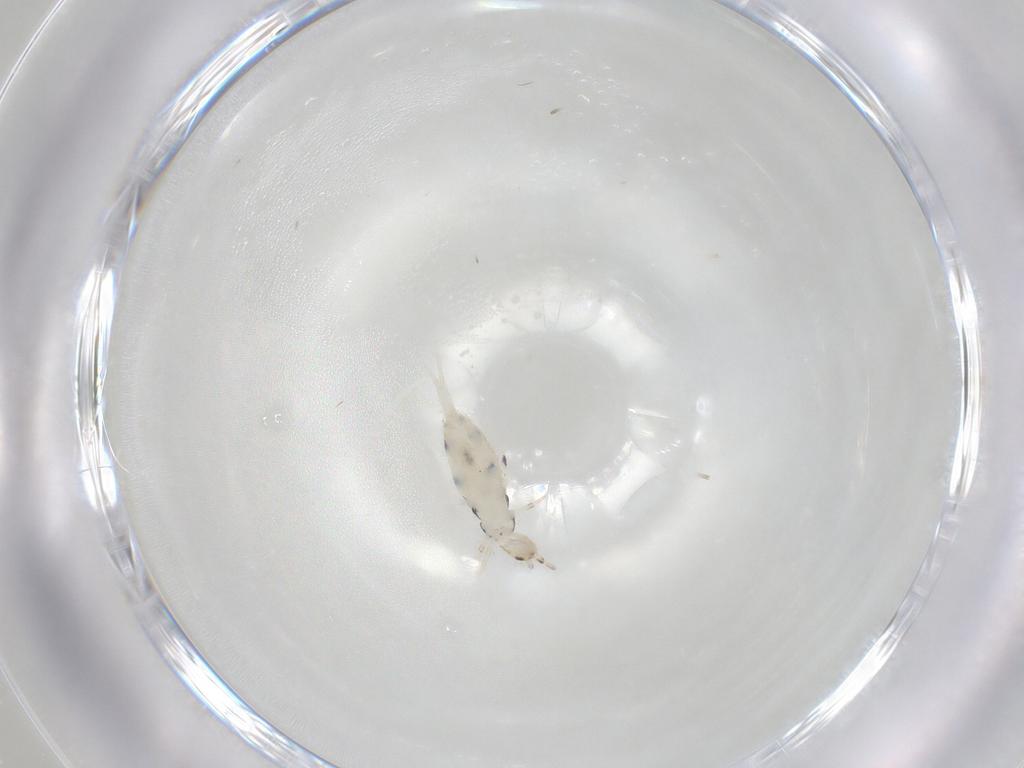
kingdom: Animalia
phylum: Arthropoda
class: Collembola
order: Entomobryomorpha
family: Entomobryidae
